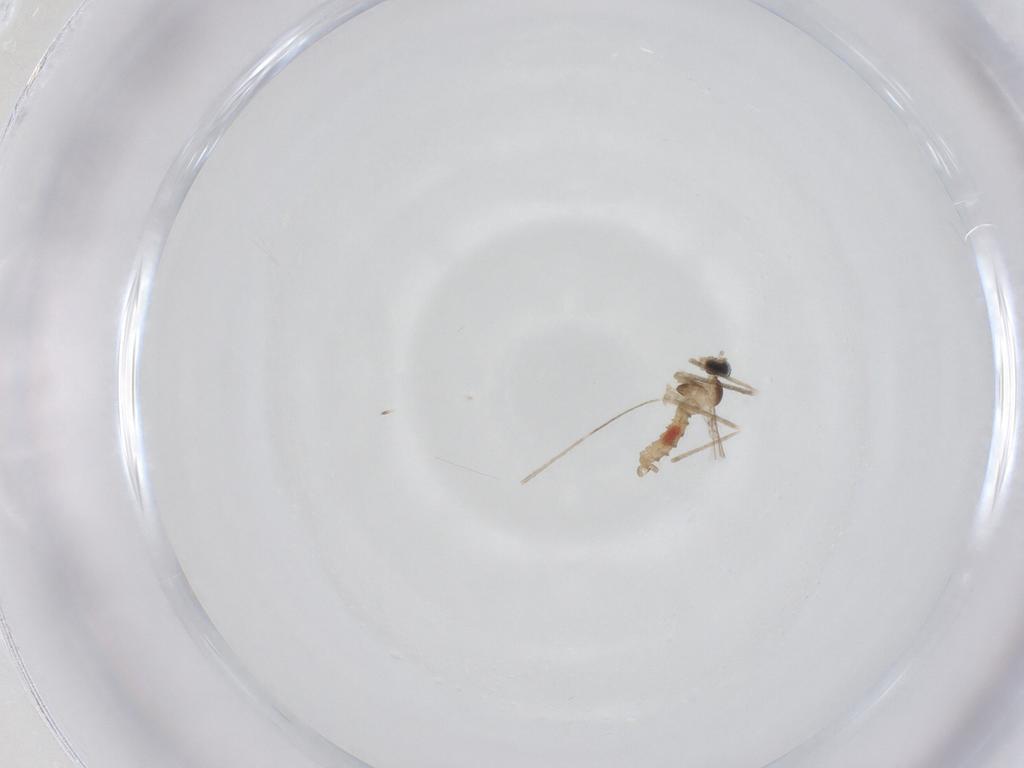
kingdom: Animalia
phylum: Arthropoda
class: Insecta
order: Diptera
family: Cecidomyiidae
